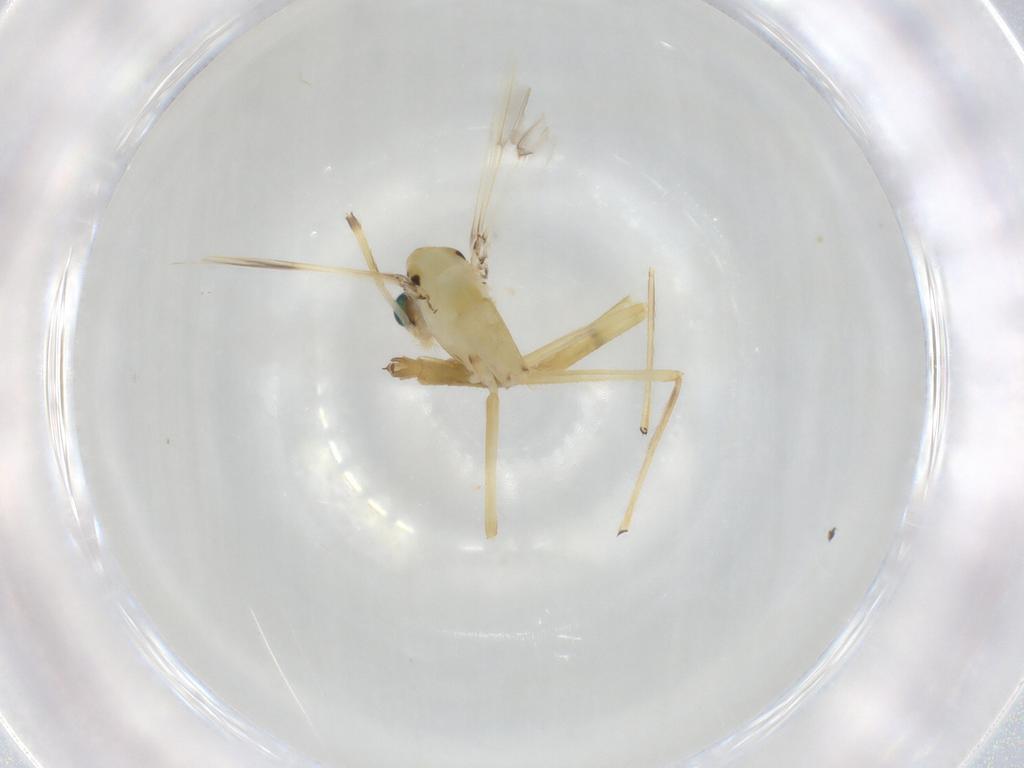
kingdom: Animalia
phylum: Arthropoda
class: Insecta
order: Diptera
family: Chironomidae
